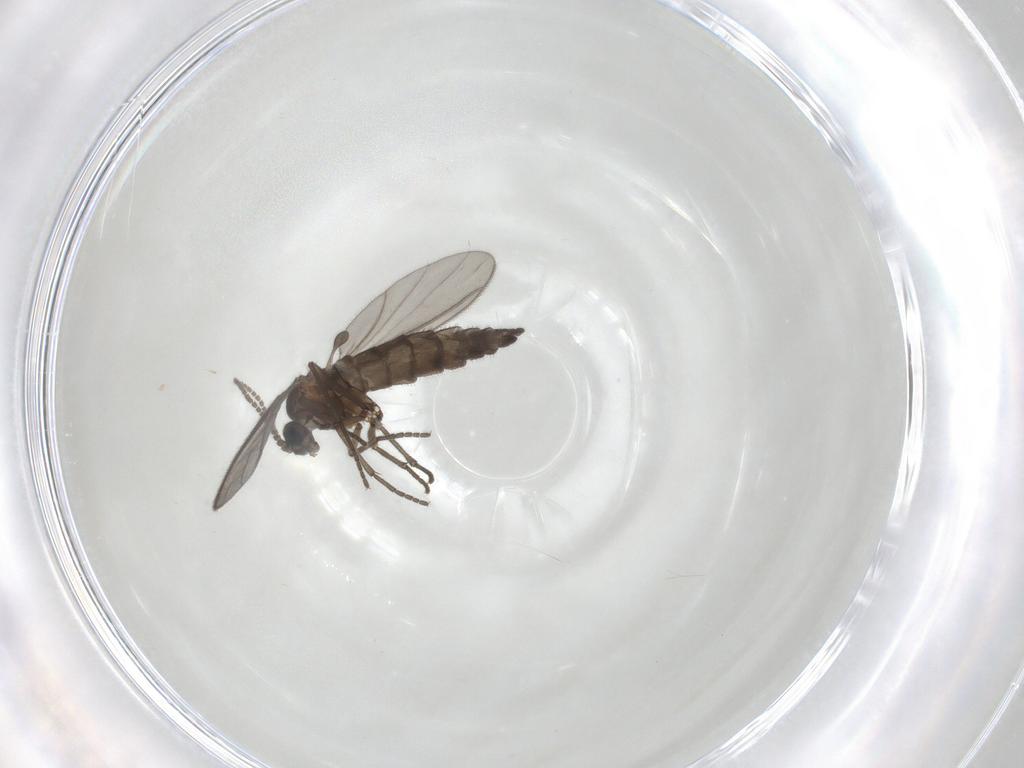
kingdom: Animalia
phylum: Arthropoda
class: Insecta
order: Diptera
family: Sciaridae
